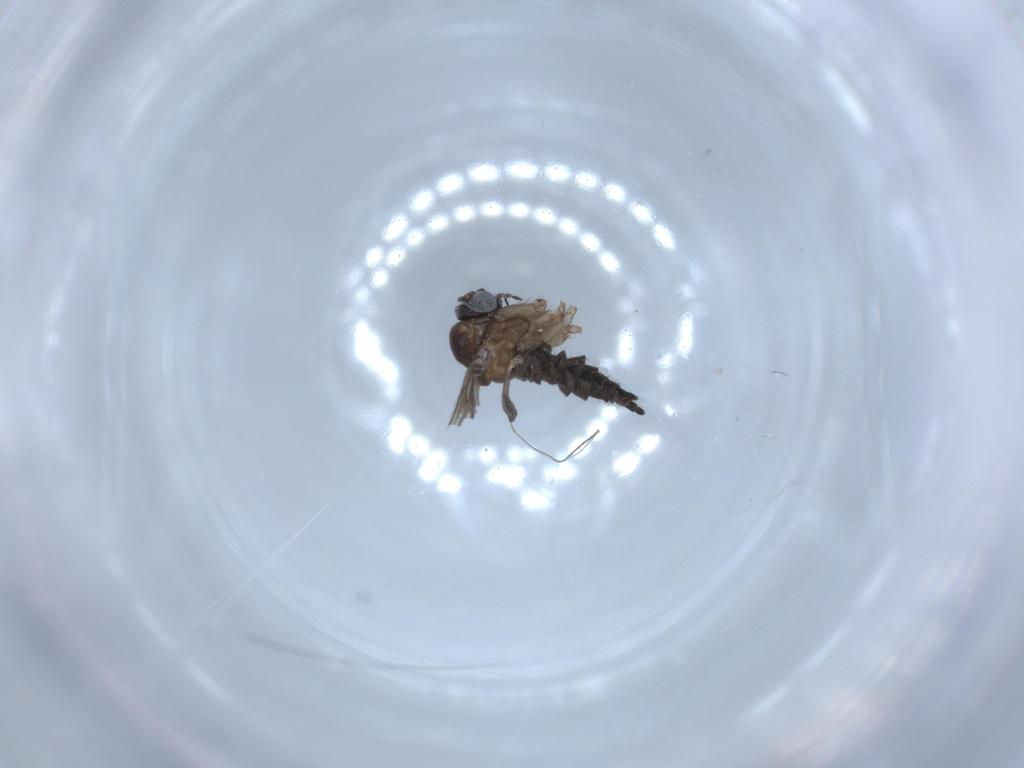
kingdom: Animalia
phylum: Arthropoda
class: Insecta
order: Diptera
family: Sciaridae
